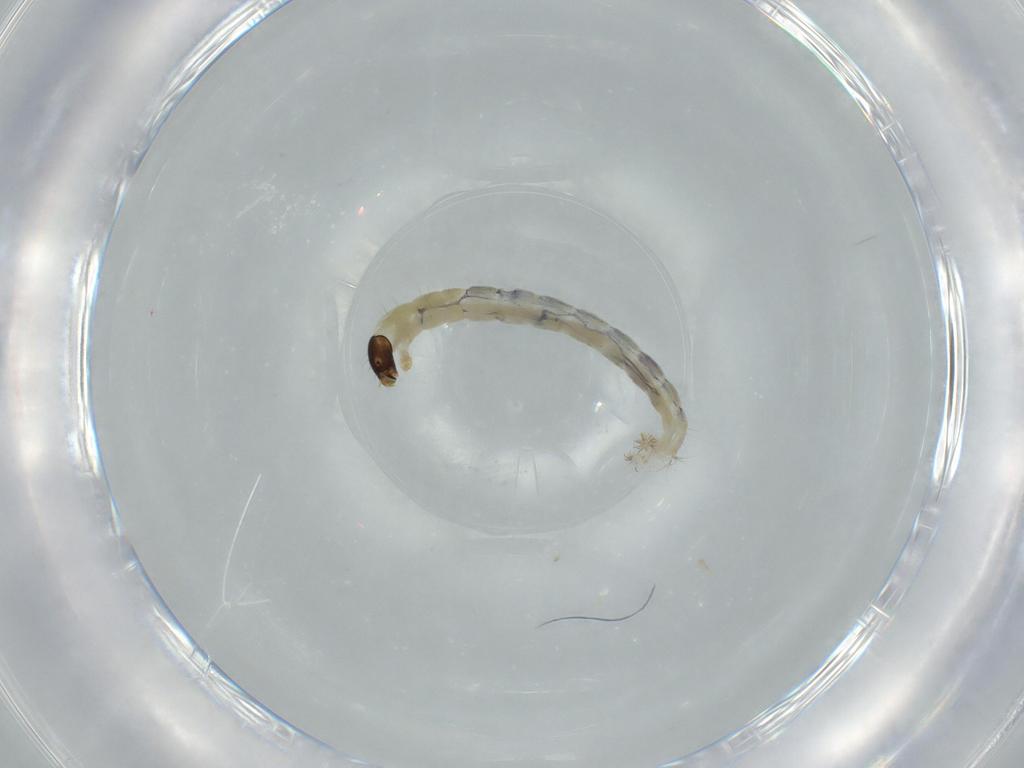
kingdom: Animalia
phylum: Arthropoda
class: Insecta
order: Diptera
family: Chironomidae
